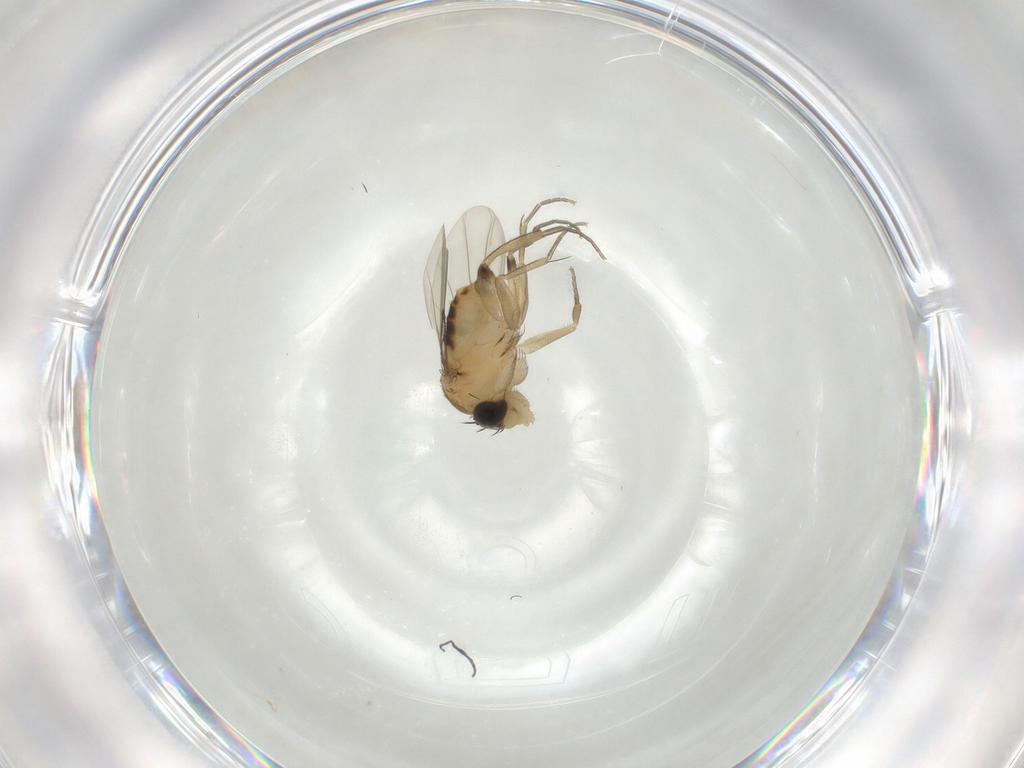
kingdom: Animalia
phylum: Arthropoda
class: Insecta
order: Diptera
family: Phoridae
